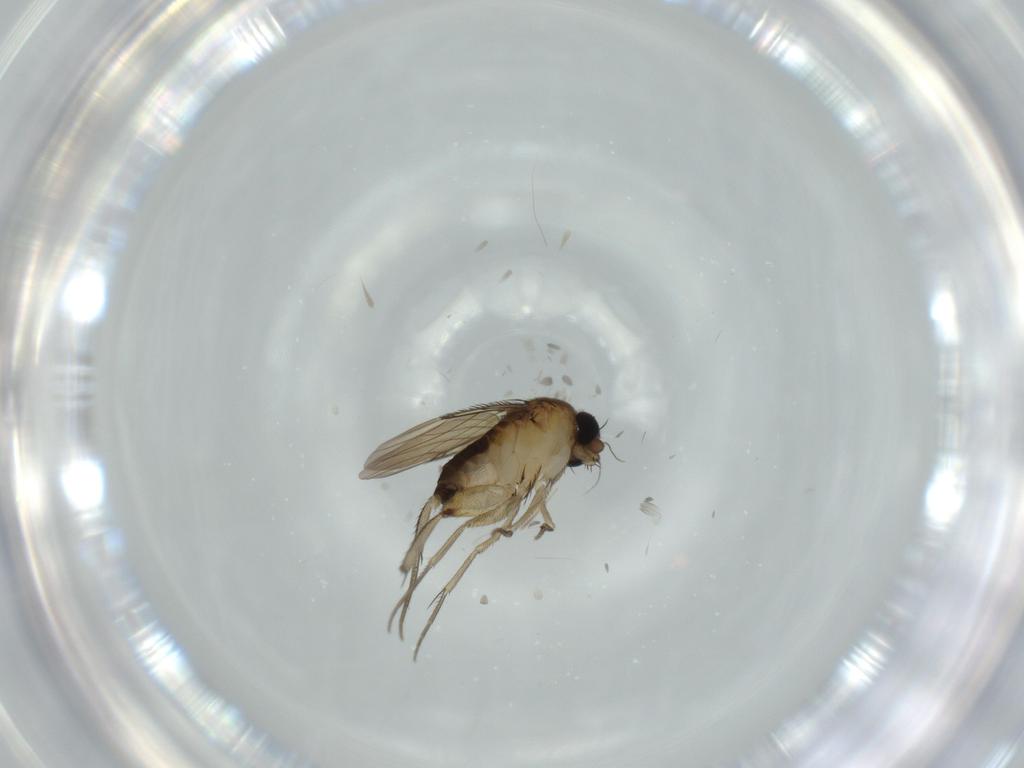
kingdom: Animalia
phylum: Arthropoda
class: Insecta
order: Diptera
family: Phoridae
